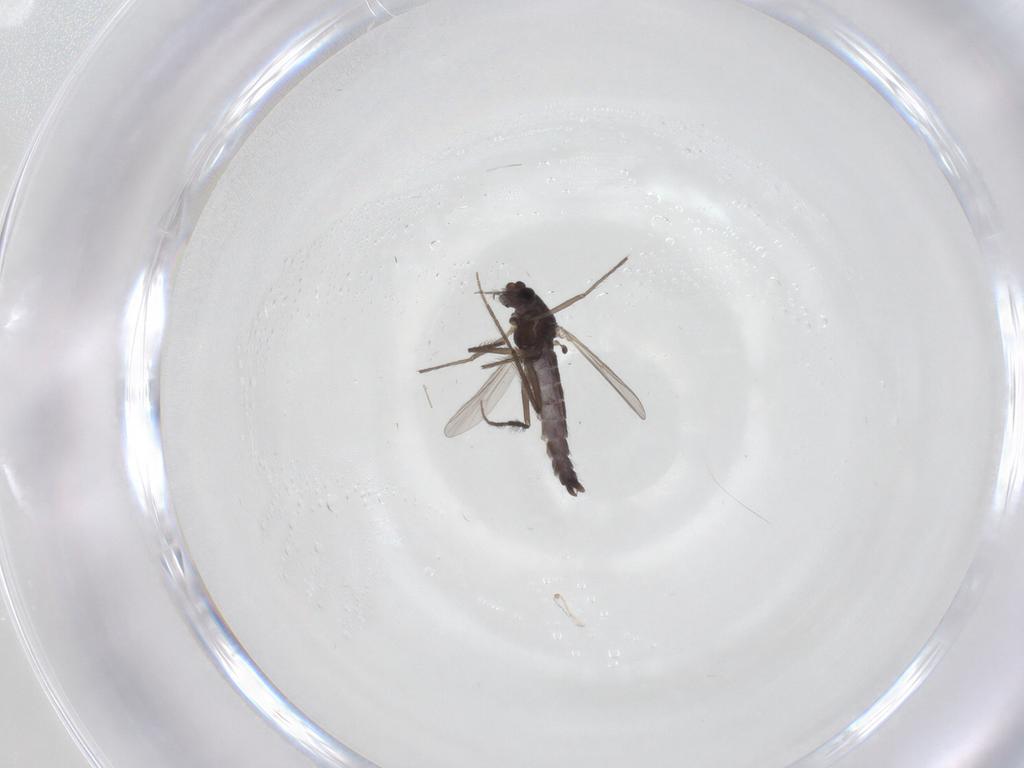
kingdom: Animalia
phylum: Arthropoda
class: Insecta
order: Diptera
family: Chironomidae
